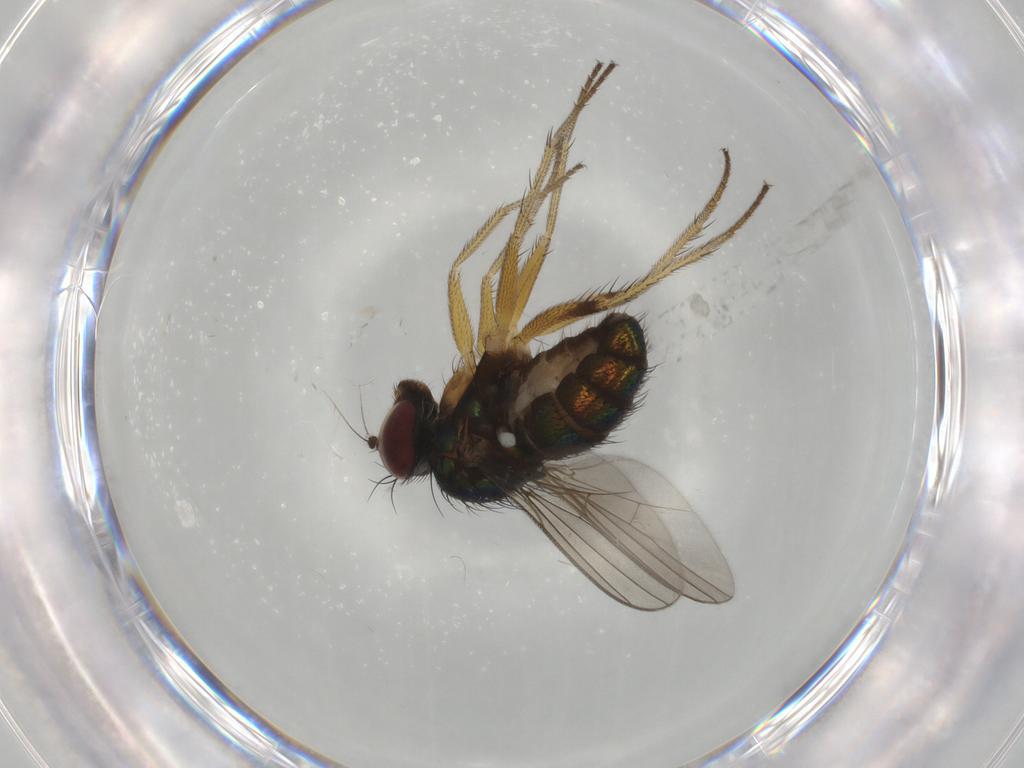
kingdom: Animalia
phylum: Arthropoda
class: Insecta
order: Diptera
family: Dolichopodidae
